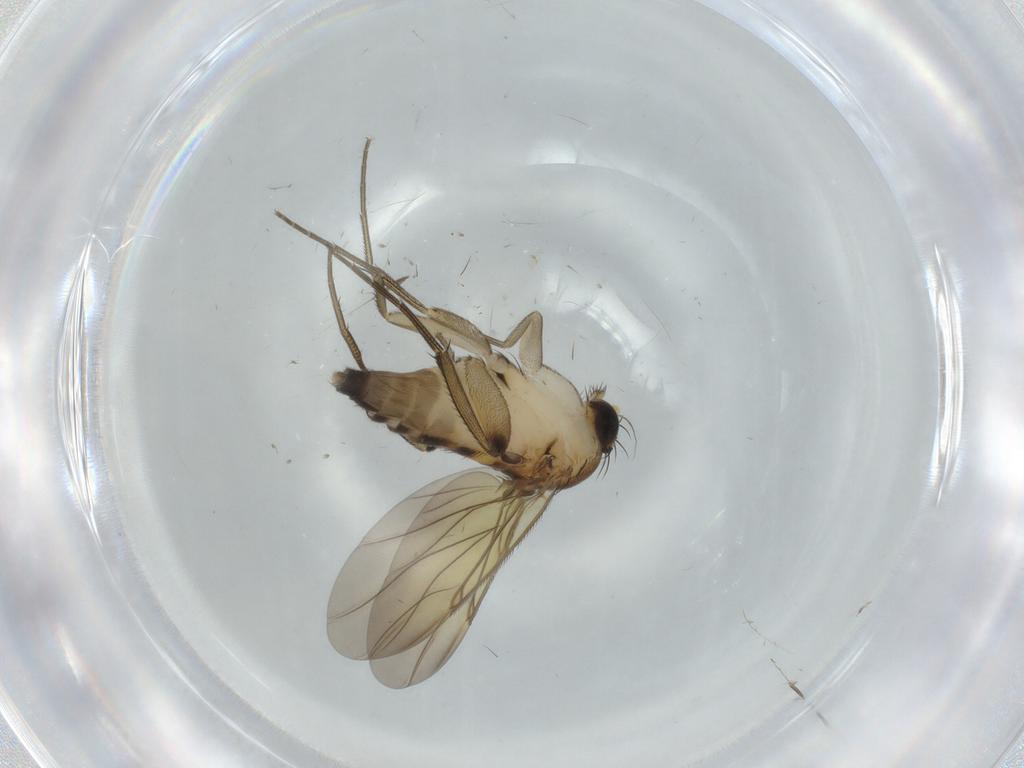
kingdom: Animalia
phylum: Arthropoda
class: Insecta
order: Diptera
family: Phoridae
